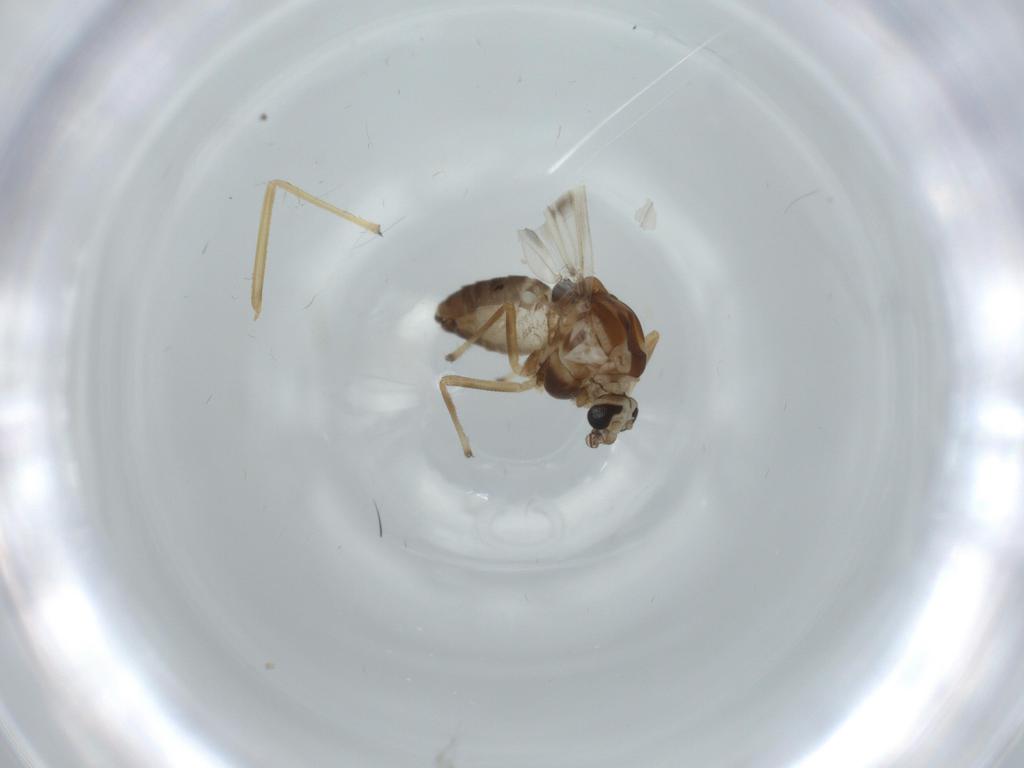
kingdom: Animalia
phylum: Arthropoda
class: Insecta
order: Diptera
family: Chironomidae
